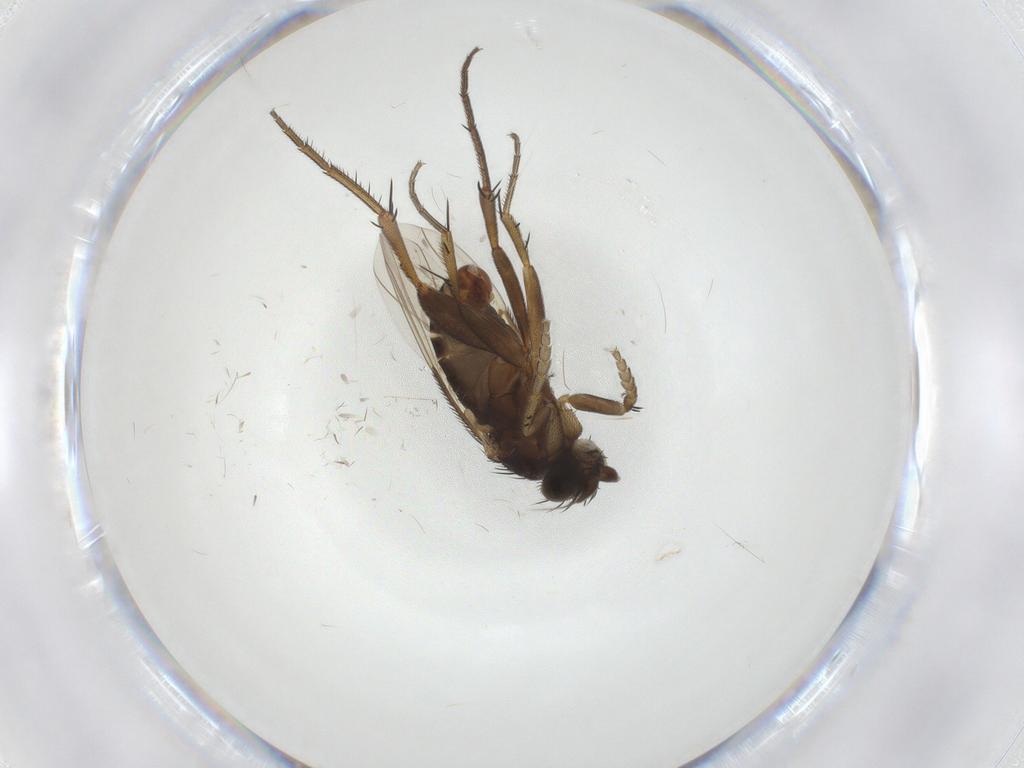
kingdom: Animalia
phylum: Arthropoda
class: Insecta
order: Diptera
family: Phoridae
